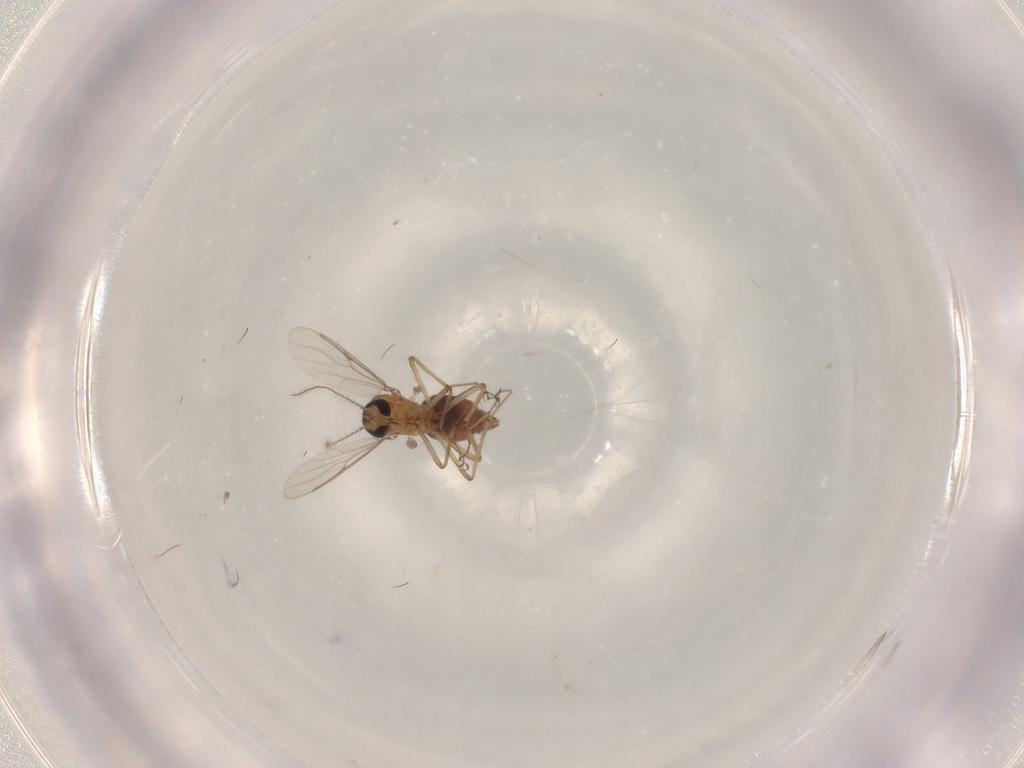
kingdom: Animalia
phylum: Arthropoda
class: Insecta
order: Diptera
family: Chironomidae
